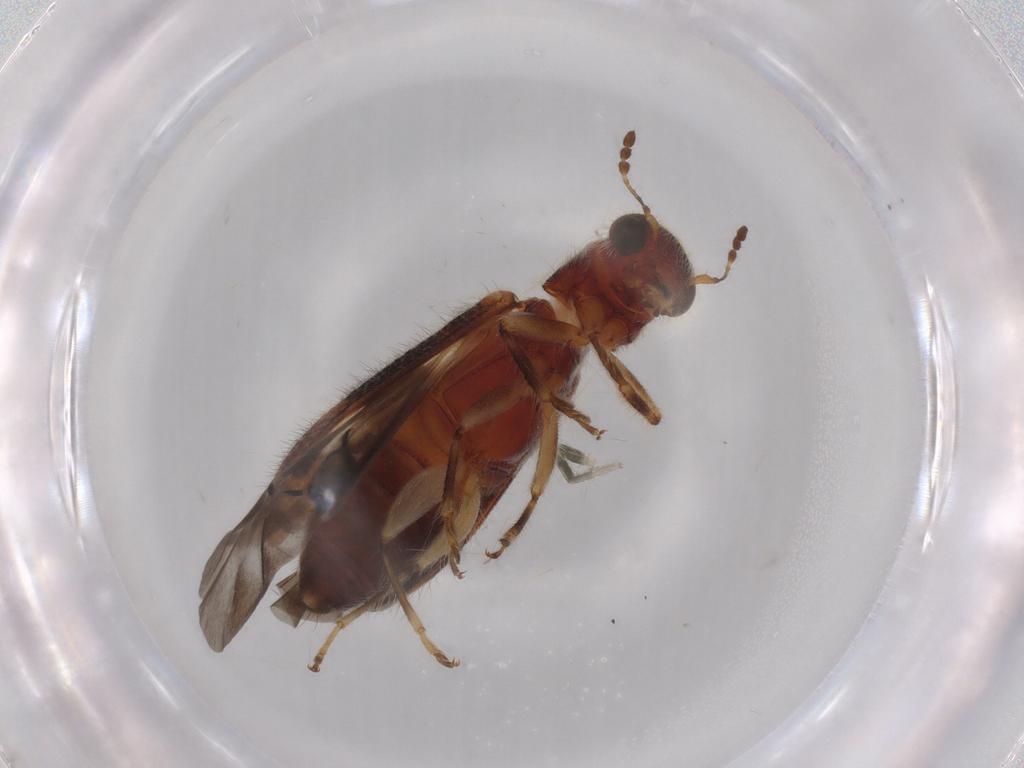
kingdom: Animalia
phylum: Arthropoda
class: Insecta
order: Coleoptera
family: Cleridae
